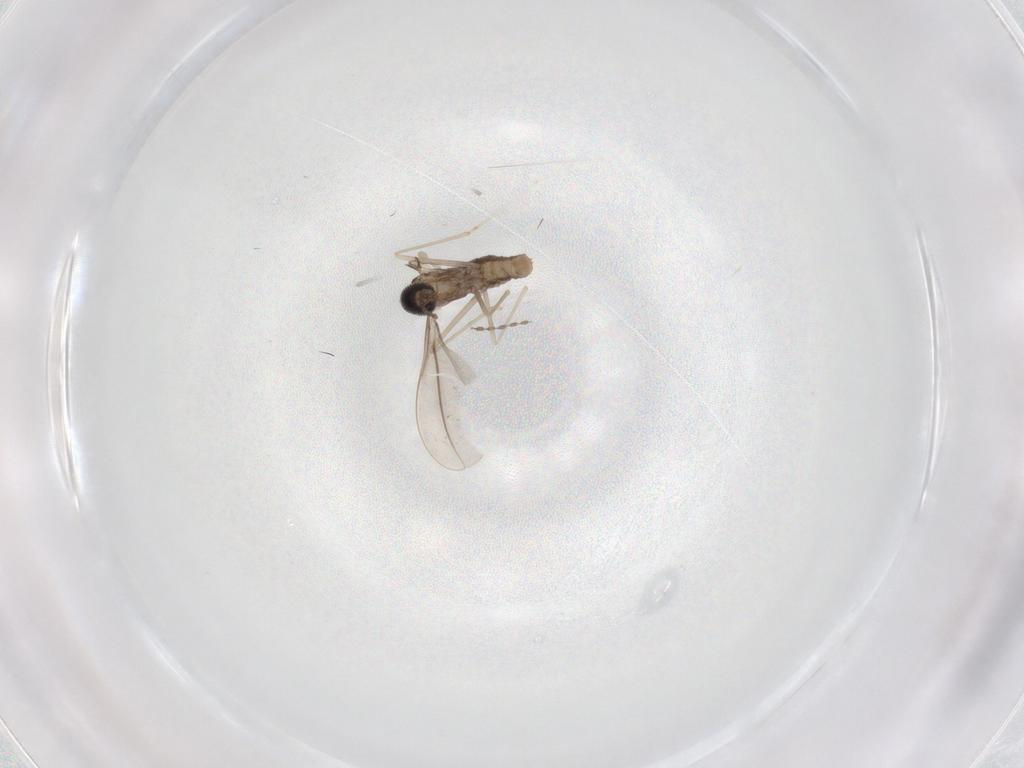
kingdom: Animalia
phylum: Arthropoda
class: Insecta
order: Diptera
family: Cecidomyiidae
